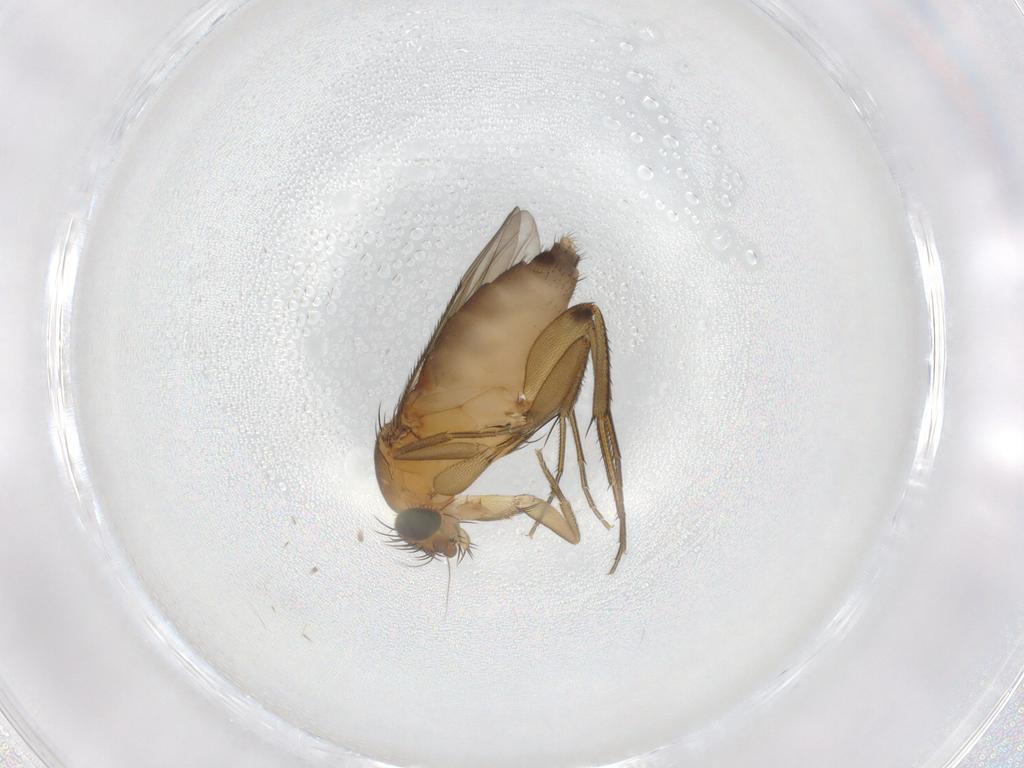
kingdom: Animalia
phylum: Arthropoda
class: Insecta
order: Diptera
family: Phoridae
